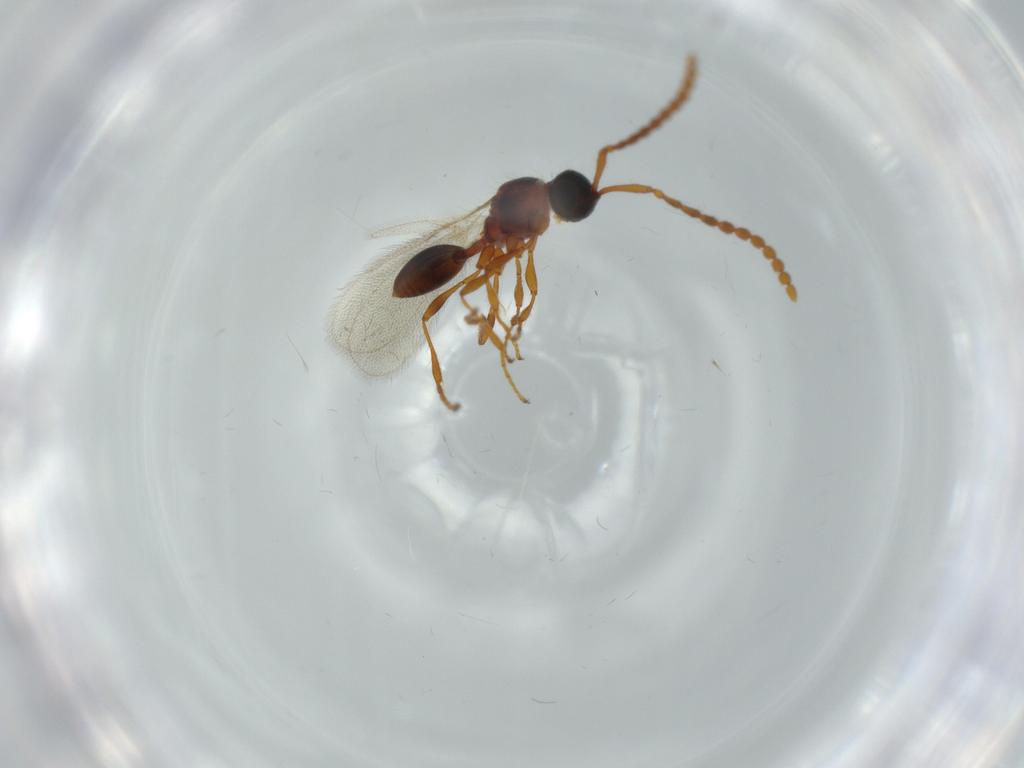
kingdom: Animalia
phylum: Arthropoda
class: Insecta
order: Hymenoptera
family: Diapriidae
